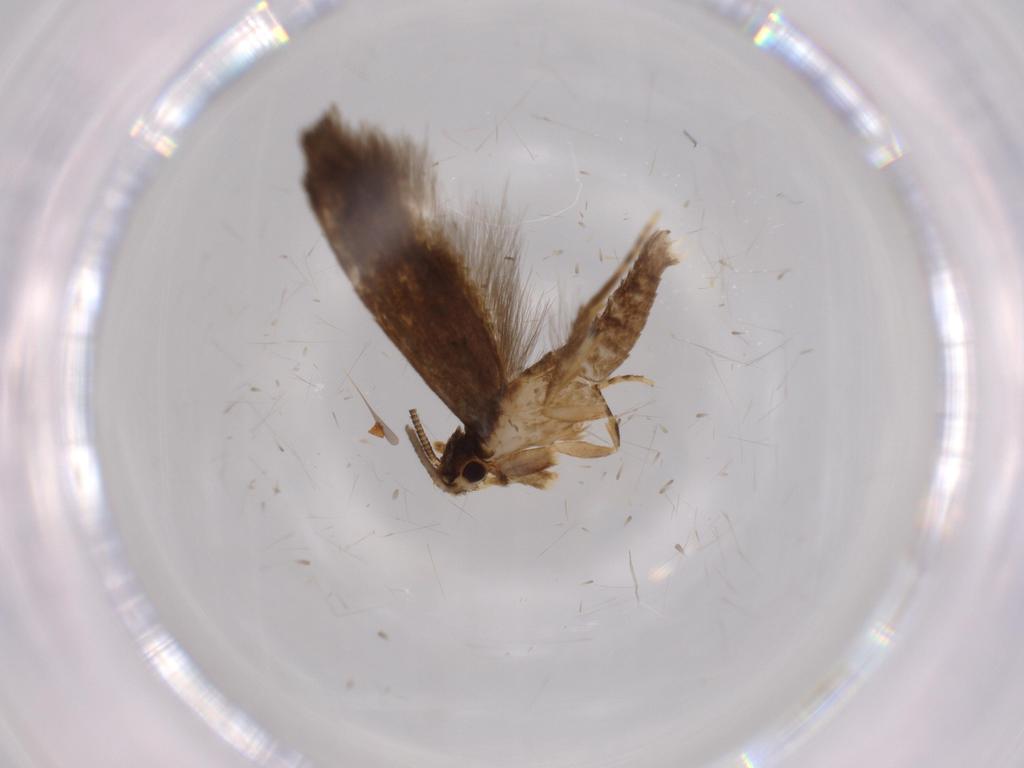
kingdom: Animalia
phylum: Arthropoda
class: Insecta
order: Lepidoptera
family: Tineidae
